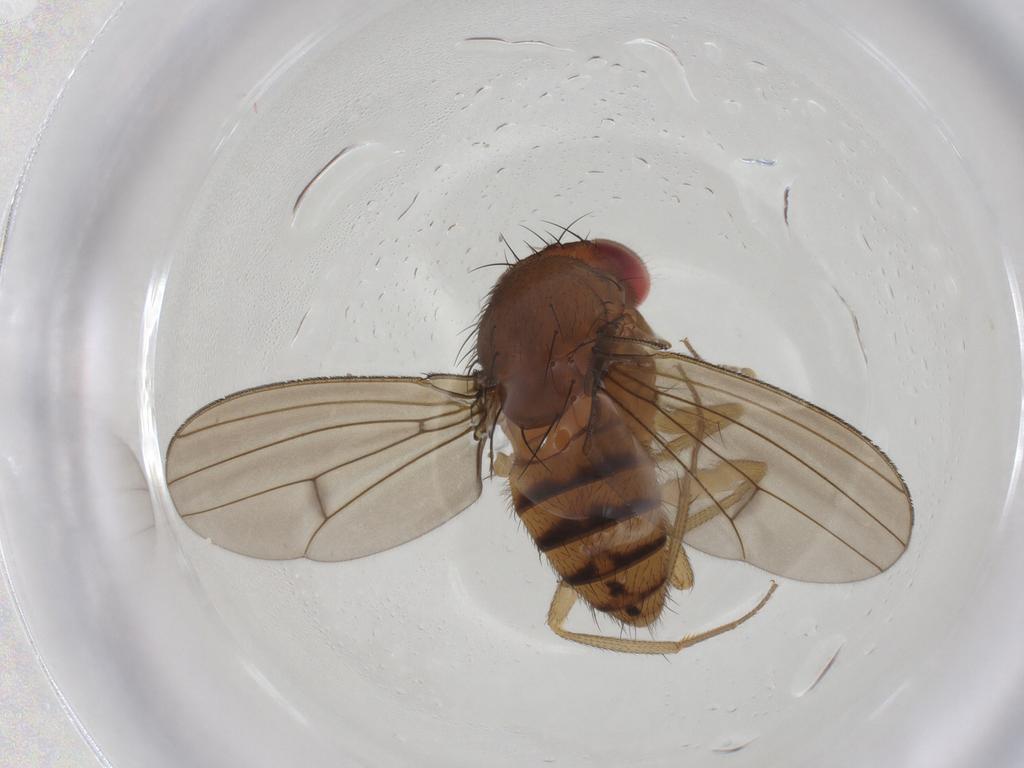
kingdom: Animalia
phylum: Arthropoda
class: Insecta
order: Diptera
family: Drosophilidae
